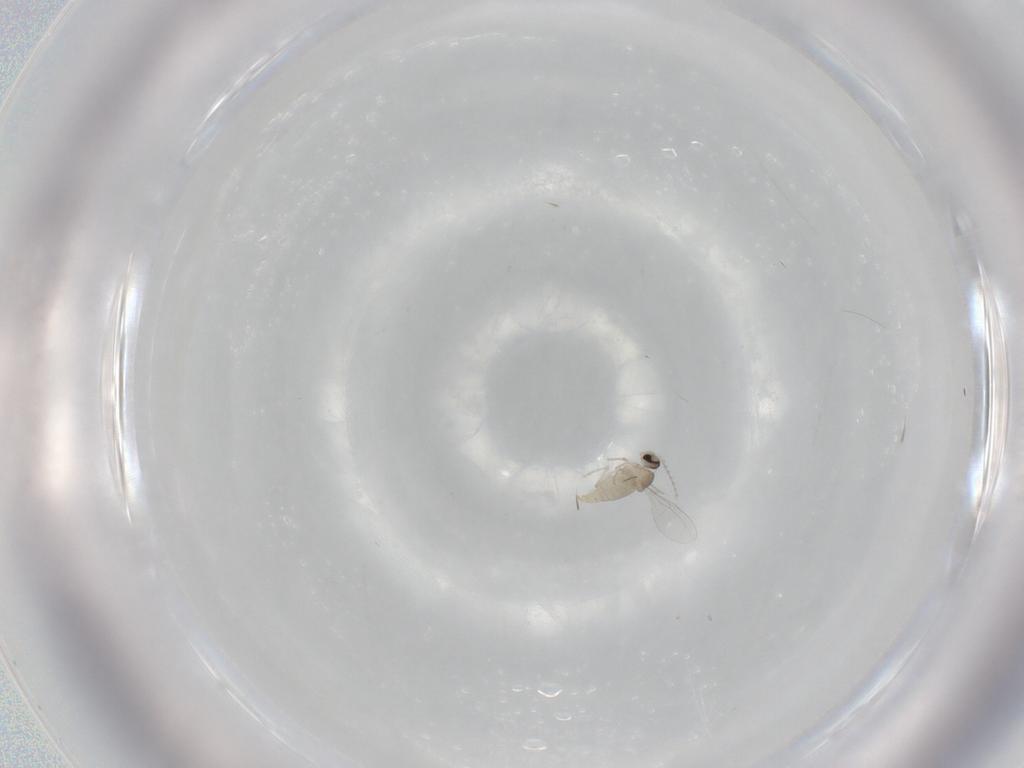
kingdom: Animalia
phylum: Arthropoda
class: Insecta
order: Diptera
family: Cecidomyiidae
